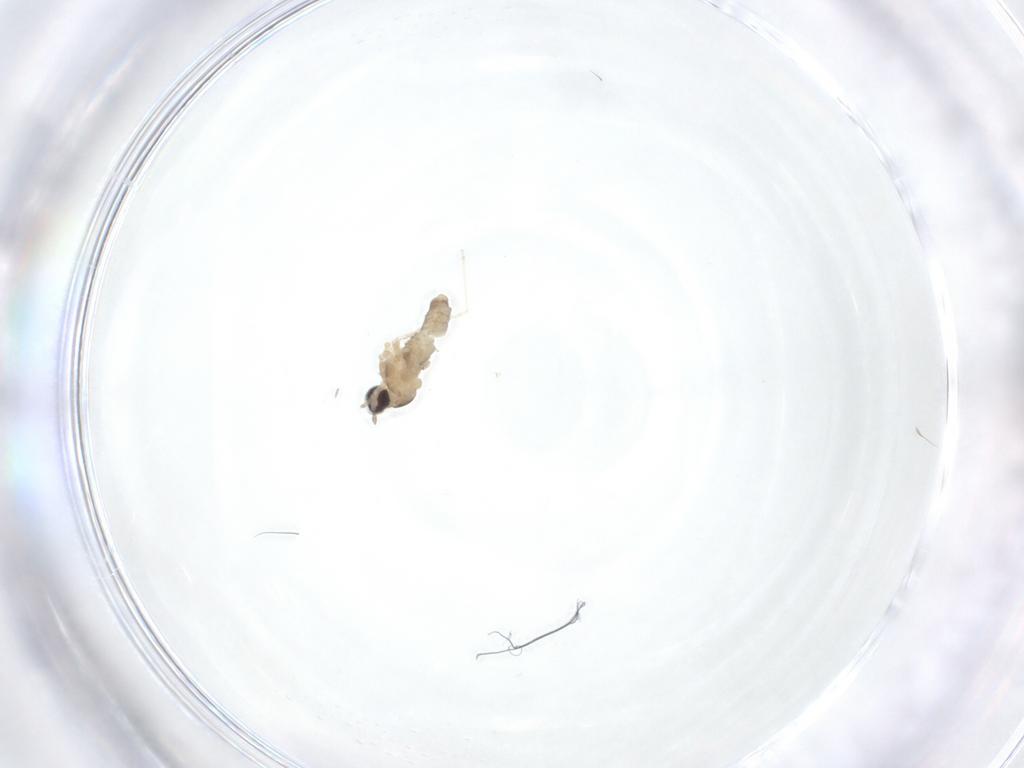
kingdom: Animalia
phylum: Arthropoda
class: Insecta
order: Diptera
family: Cecidomyiidae
